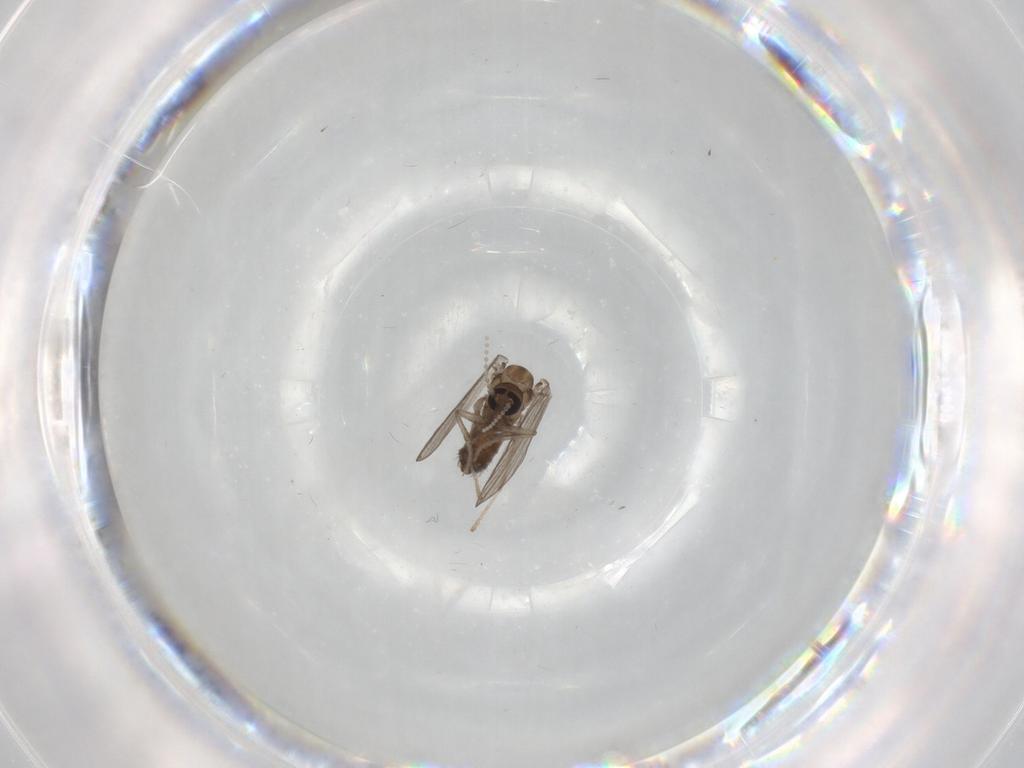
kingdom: Animalia
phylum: Arthropoda
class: Insecta
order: Diptera
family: Psychodidae
